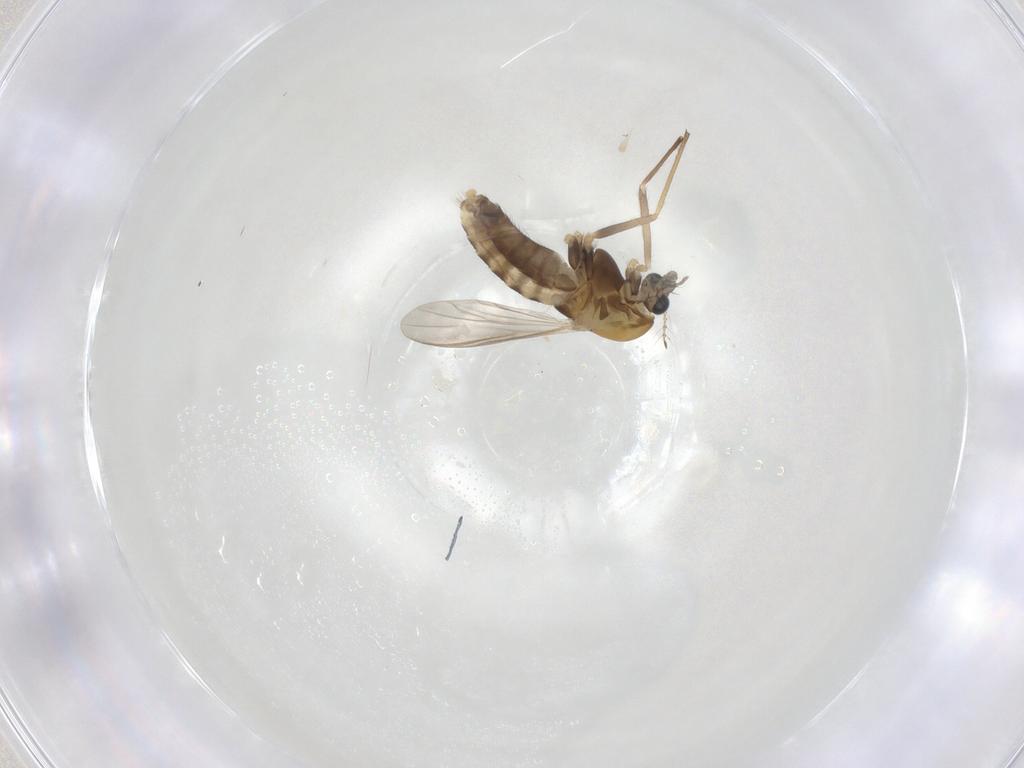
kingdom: Animalia
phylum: Arthropoda
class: Insecta
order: Diptera
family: Chironomidae
